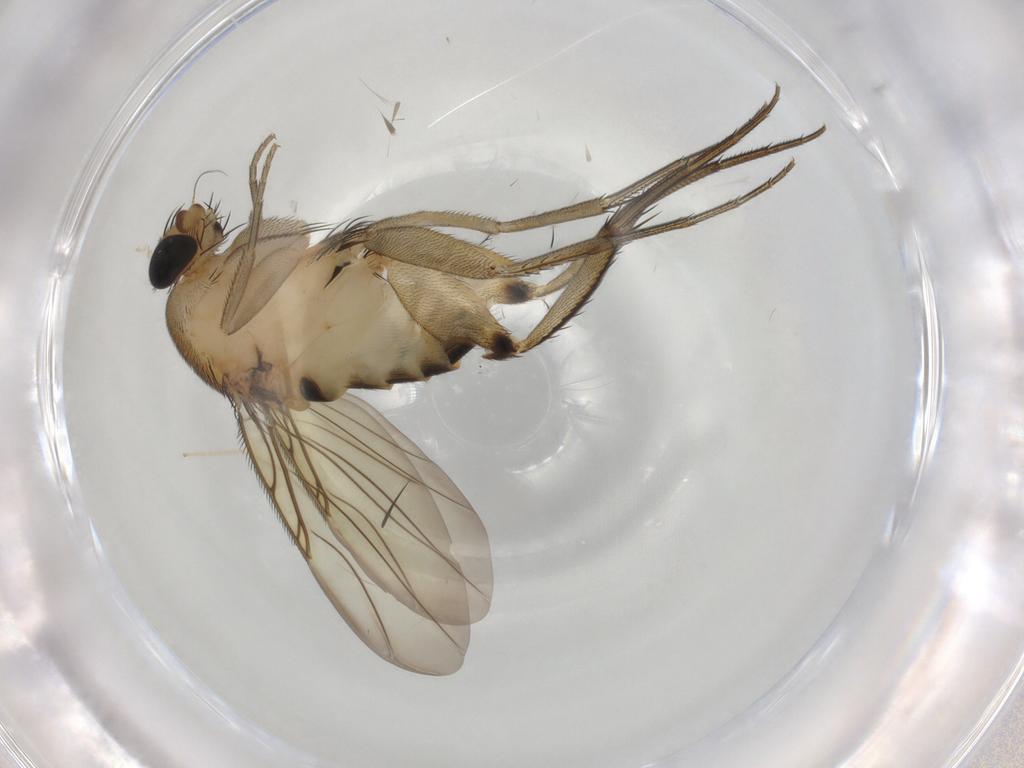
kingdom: Animalia
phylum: Arthropoda
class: Insecta
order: Diptera
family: Phoridae
